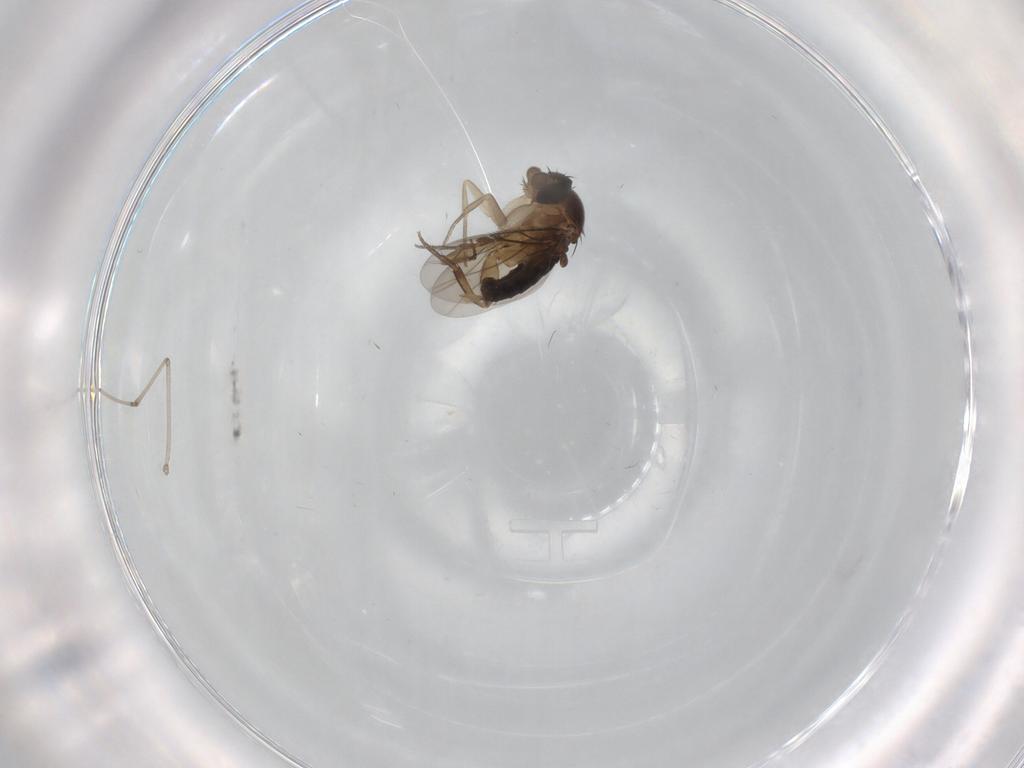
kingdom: Animalia
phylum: Arthropoda
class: Insecta
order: Diptera
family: Phoridae
